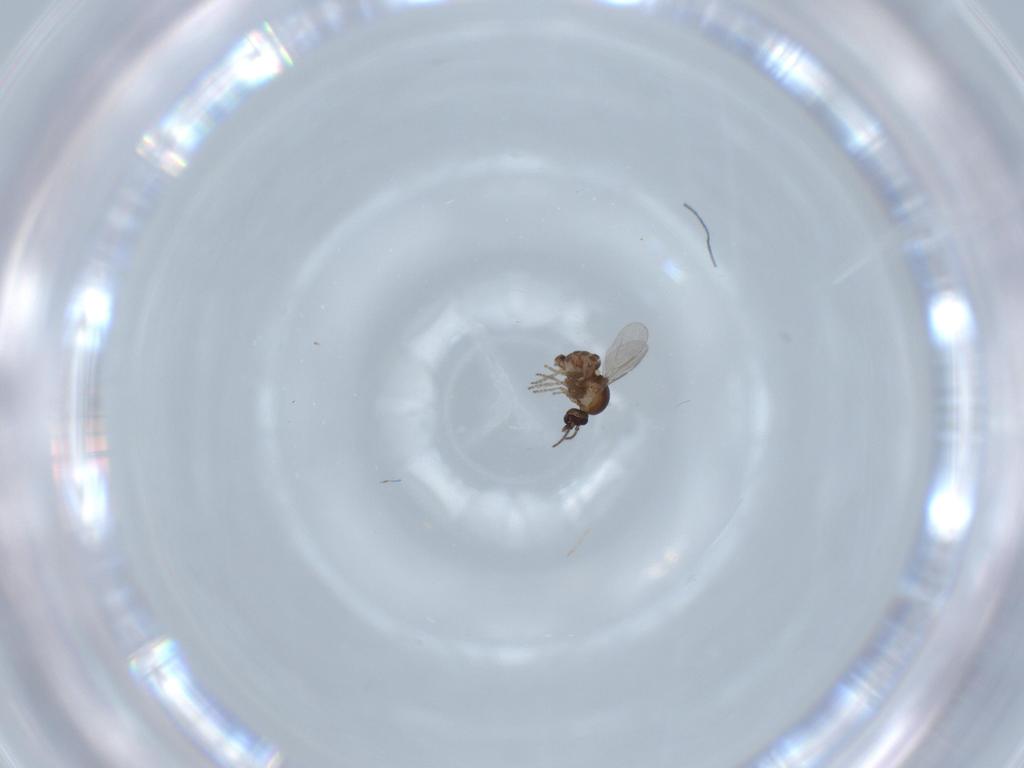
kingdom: Animalia
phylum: Arthropoda
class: Insecta
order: Diptera
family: Ceratopogonidae
